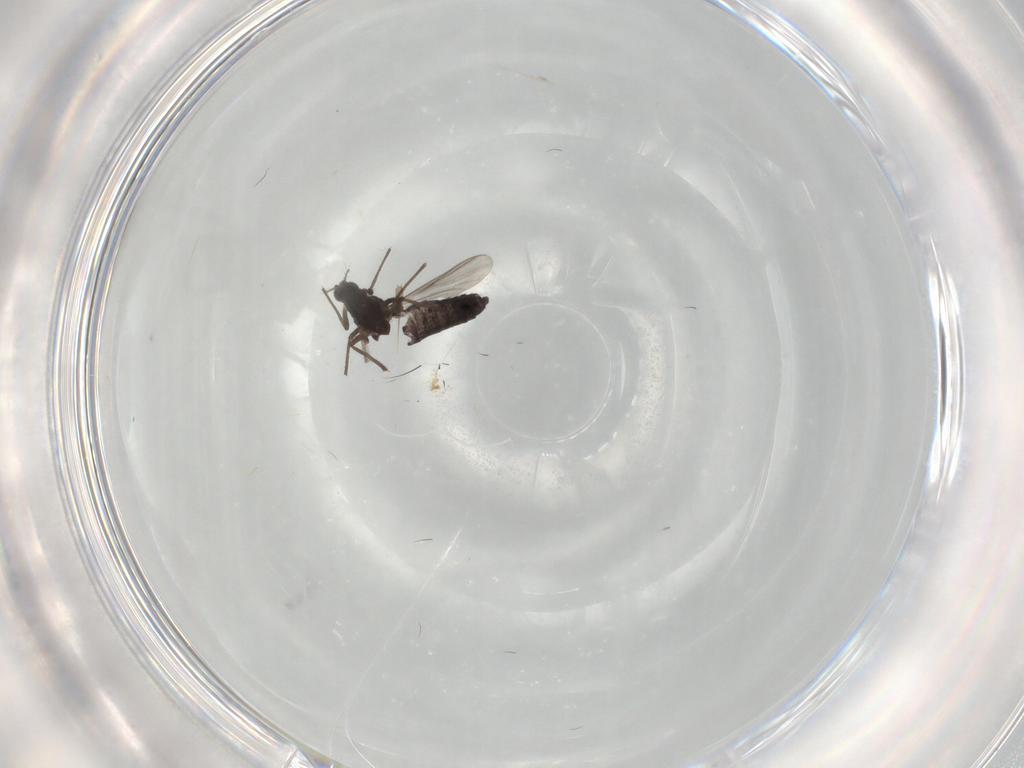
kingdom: Animalia
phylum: Arthropoda
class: Insecta
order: Diptera
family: Chironomidae
